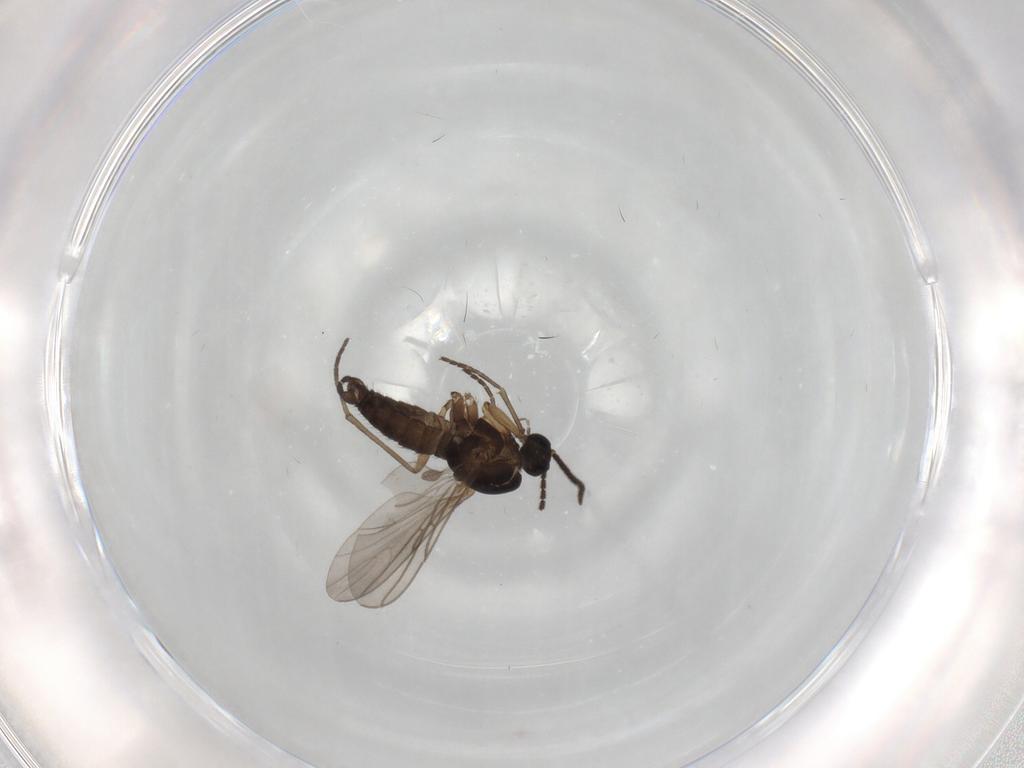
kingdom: Animalia
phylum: Arthropoda
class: Insecta
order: Diptera
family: Sciaridae
